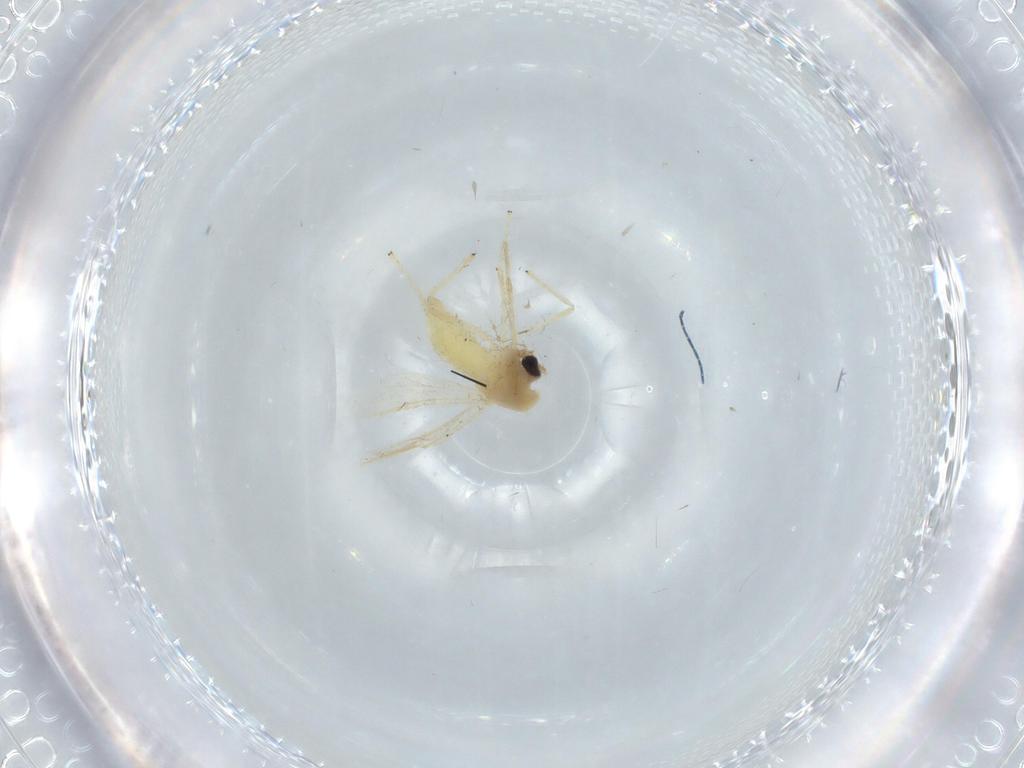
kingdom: Animalia
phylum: Arthropoda
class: Insecta
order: Diptera
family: Chironomidae
